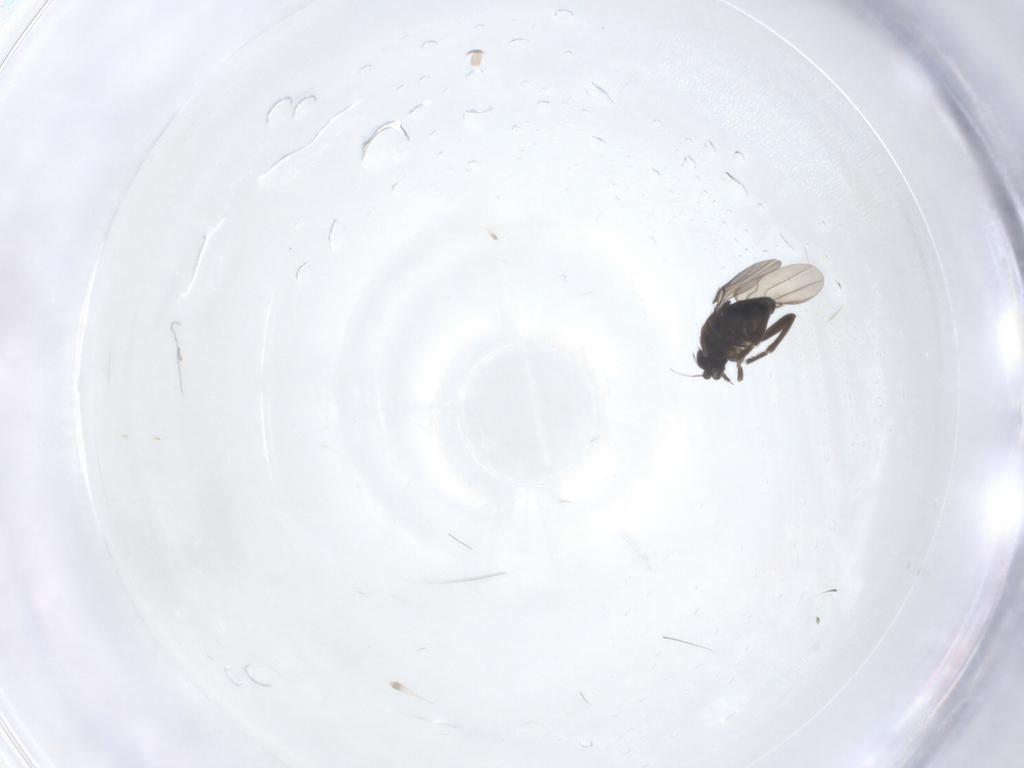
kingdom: Animalia
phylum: Arthropoda
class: Insecta
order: Diptera
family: Phoridae
